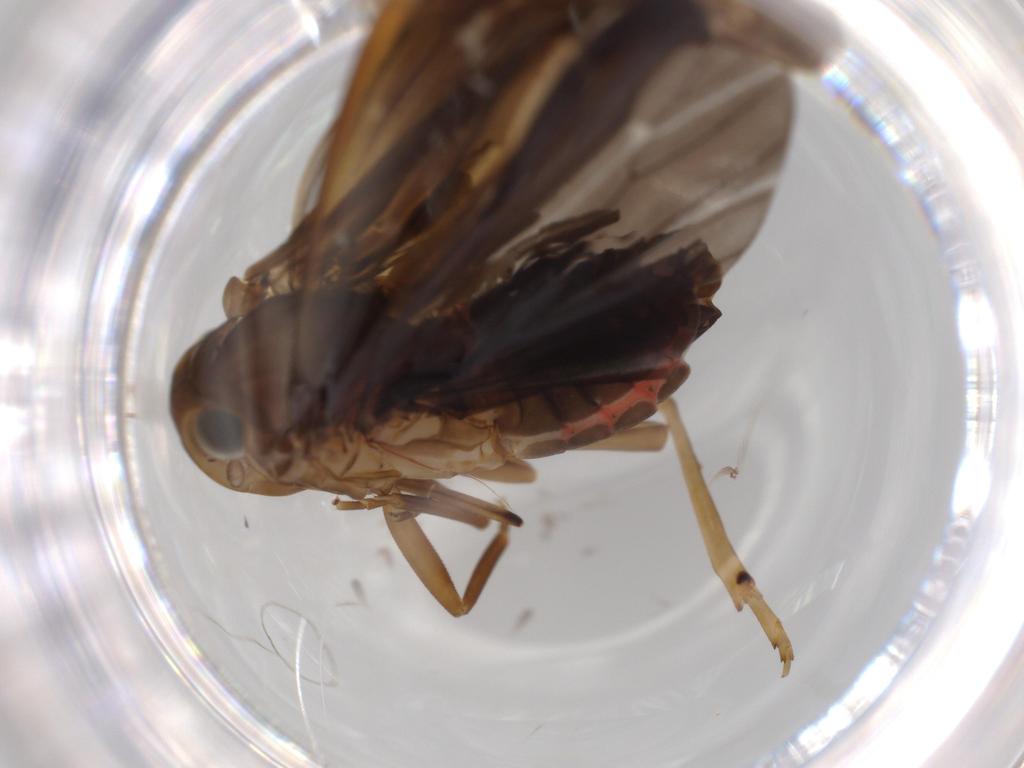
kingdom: Animalia
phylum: Arthropoda
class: Insecta
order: Hemiptera
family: Achilidae
